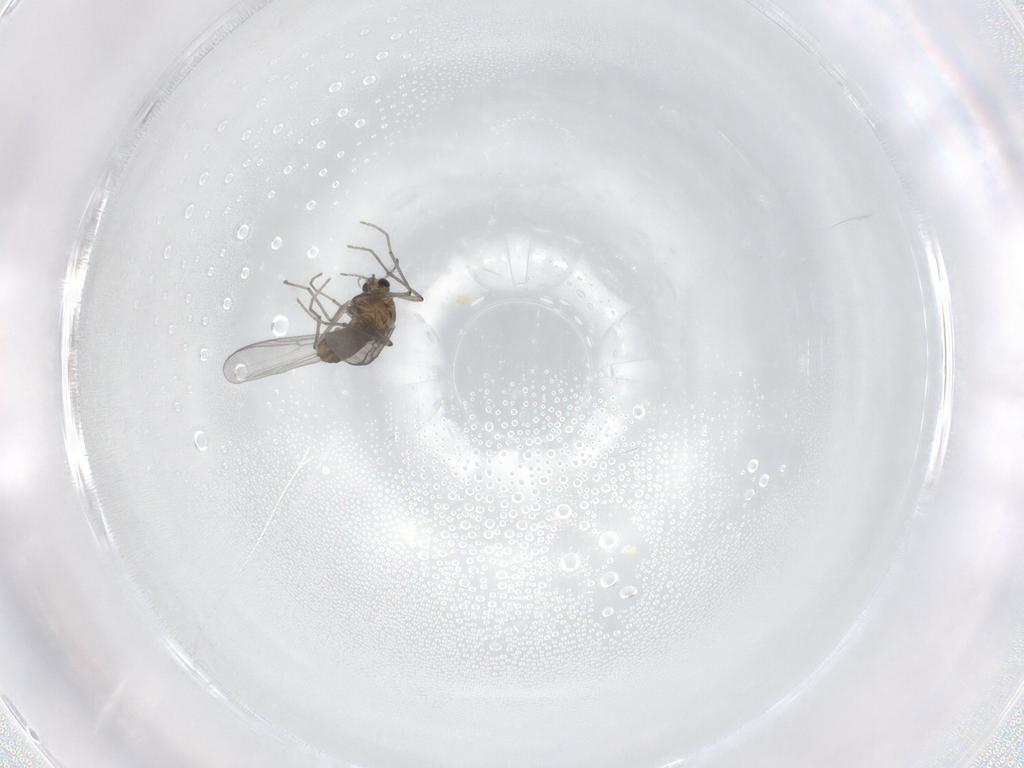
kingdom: Animalia
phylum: Arthropoda
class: Insecta
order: Diptera
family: Chironomidae
